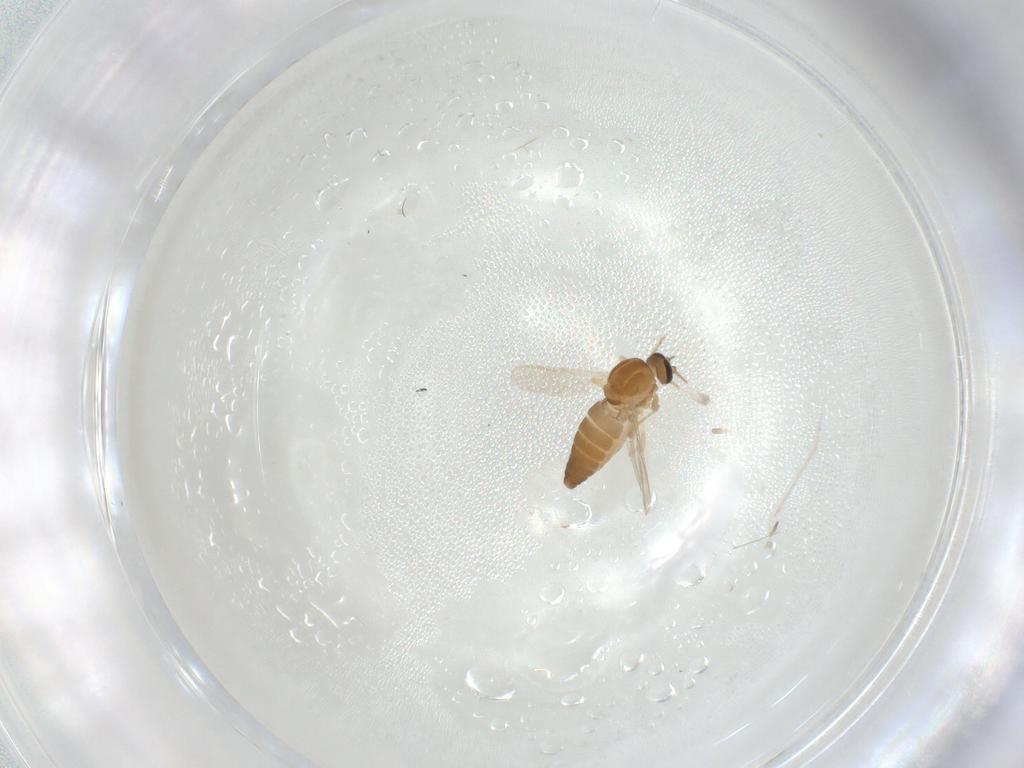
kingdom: Animalia
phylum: Arthropoda
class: Insecta
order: Diptera
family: Ceratopogonidae
